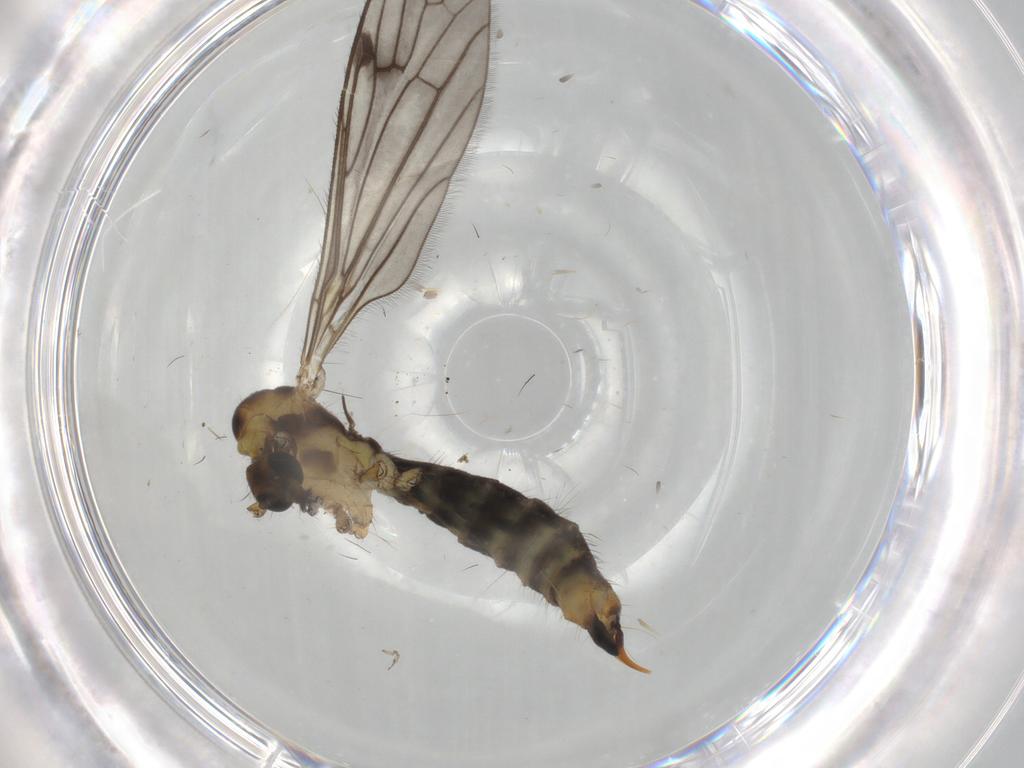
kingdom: Animalia
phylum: Arthropoda
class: Insecta
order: Diptera
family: Limoniidae
